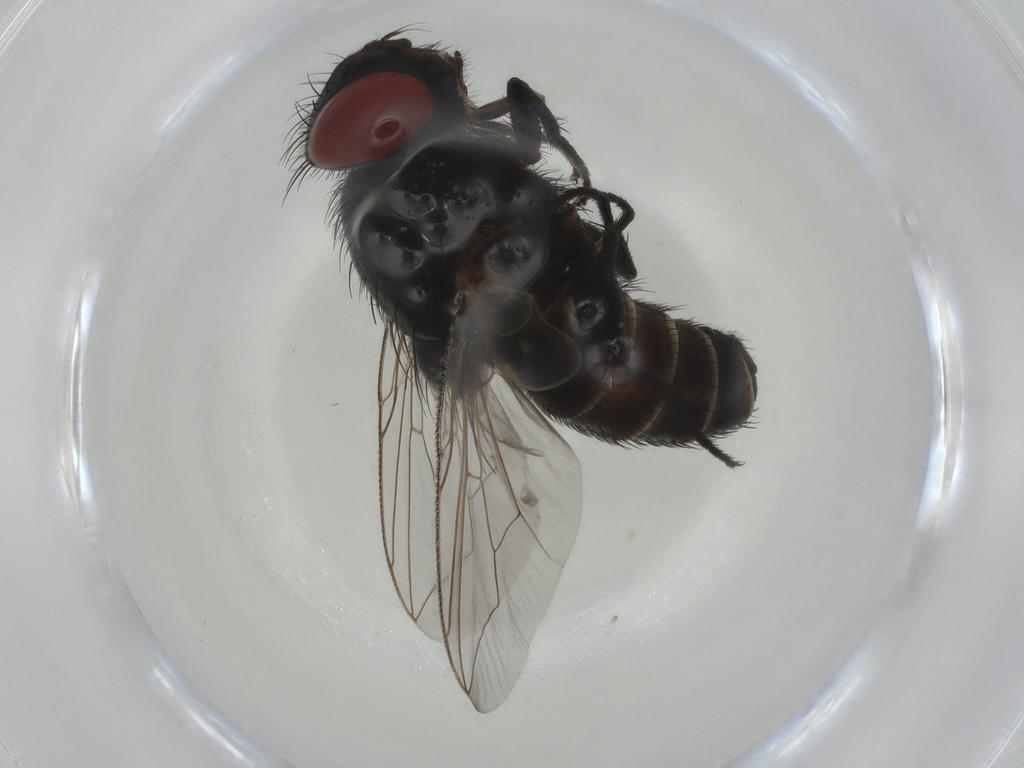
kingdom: Animalia
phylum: Arthropoda
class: Insecta
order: Diptera
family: Sarcophagidae
